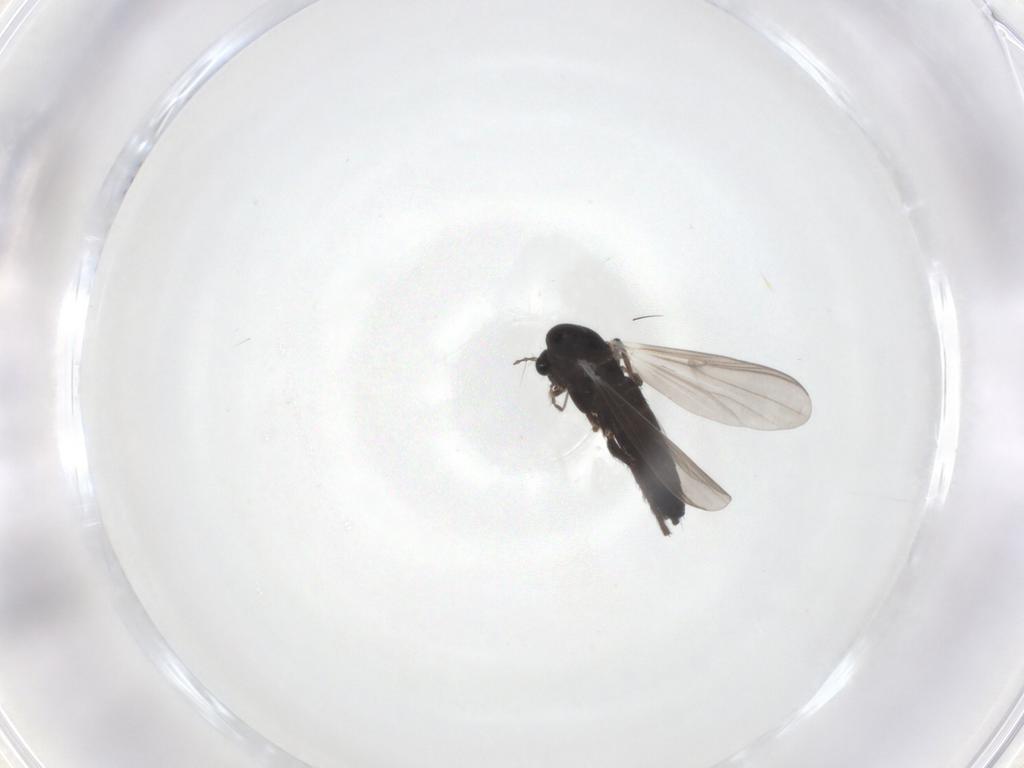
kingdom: Animalia
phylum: Arthropoda
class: Insecta
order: Diptera
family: Chironomidae
